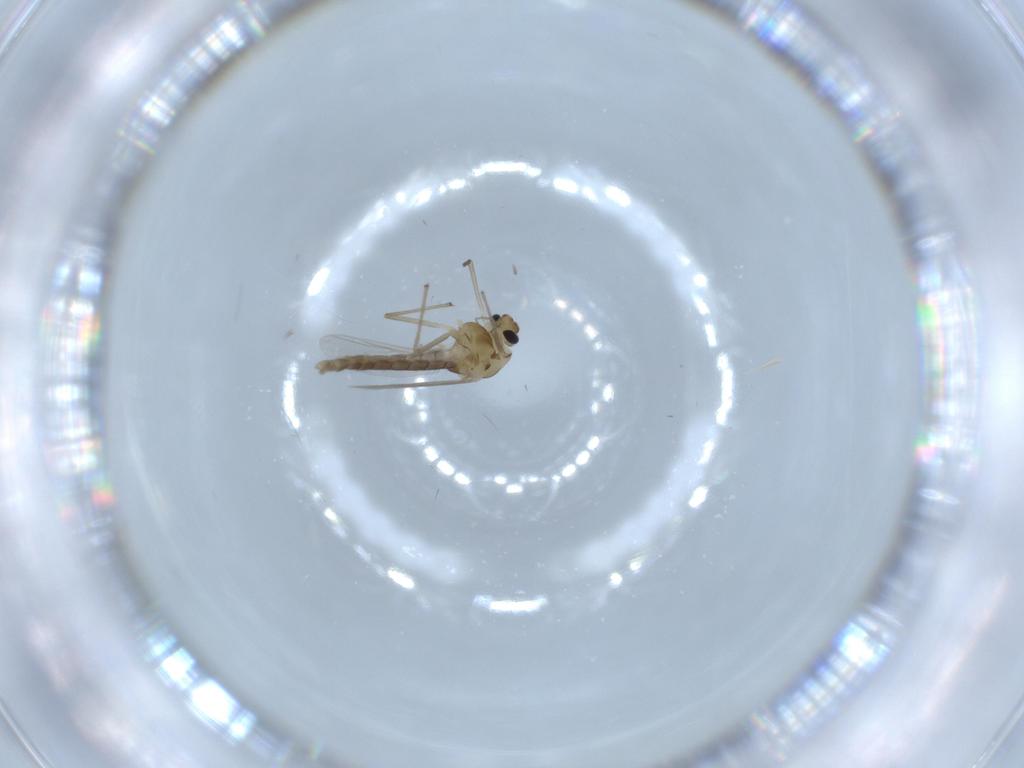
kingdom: Animalia
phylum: Arthropoda
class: Insecta
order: Diptera
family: Chironomidae
